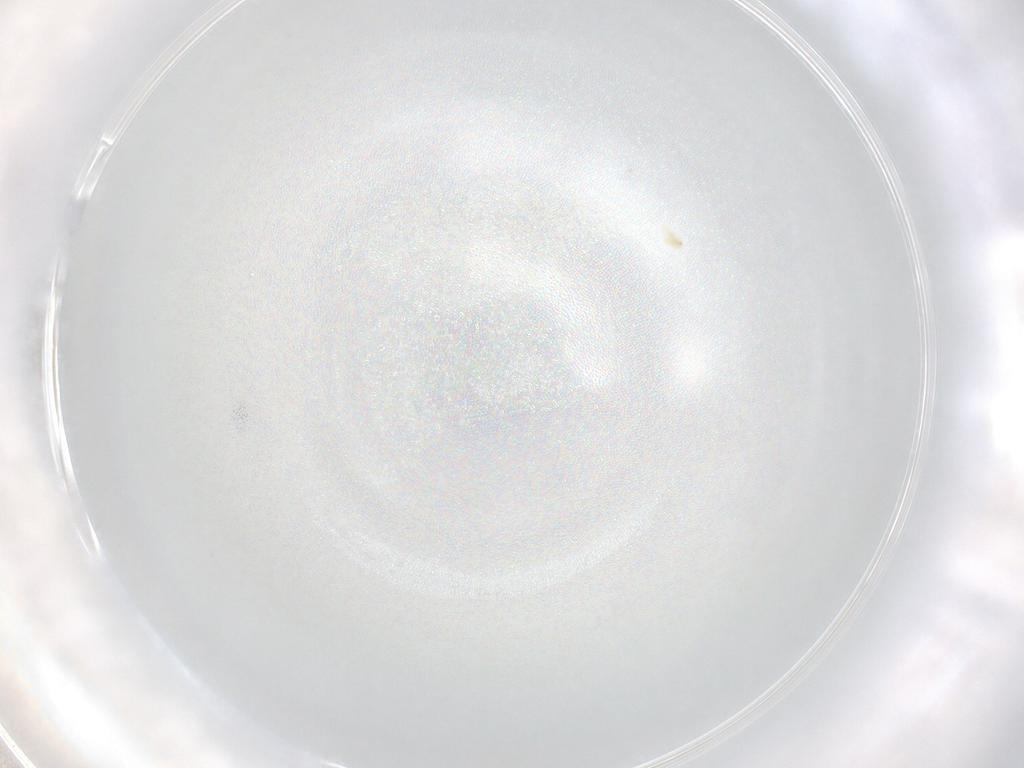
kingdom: Animalia
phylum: Arthropoda
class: Arachnida
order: Trombidiformes
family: Eupodidae
